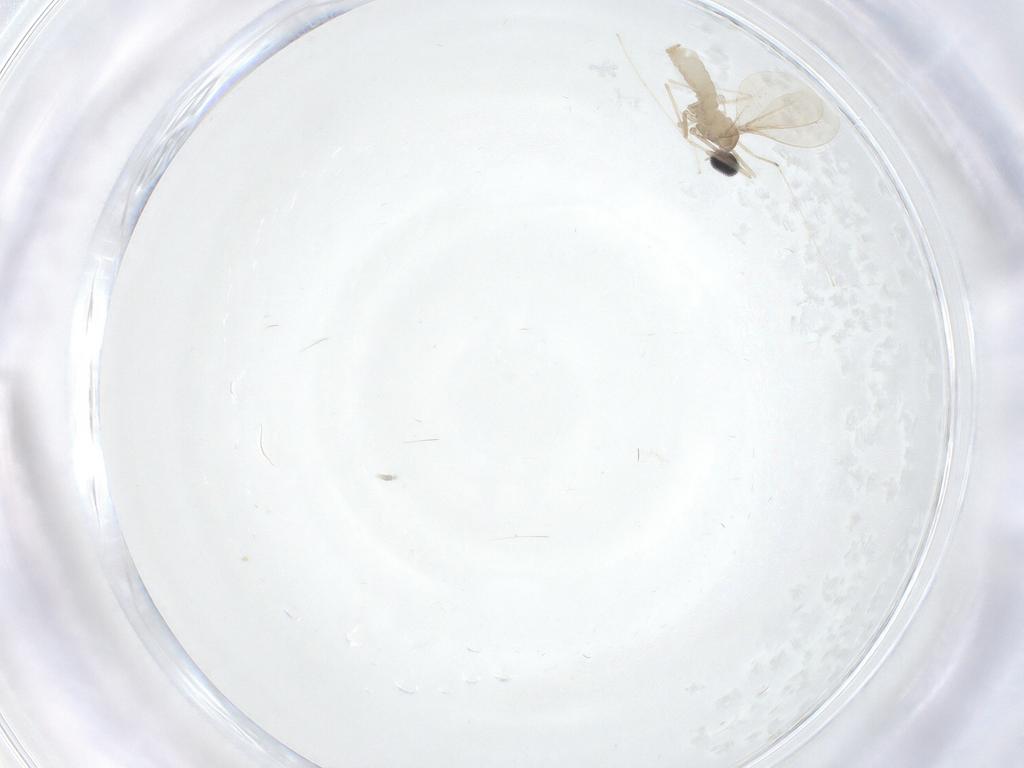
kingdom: Animalia
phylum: Arthropoda
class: Insecta
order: Diptera
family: Cecidomyiidae
